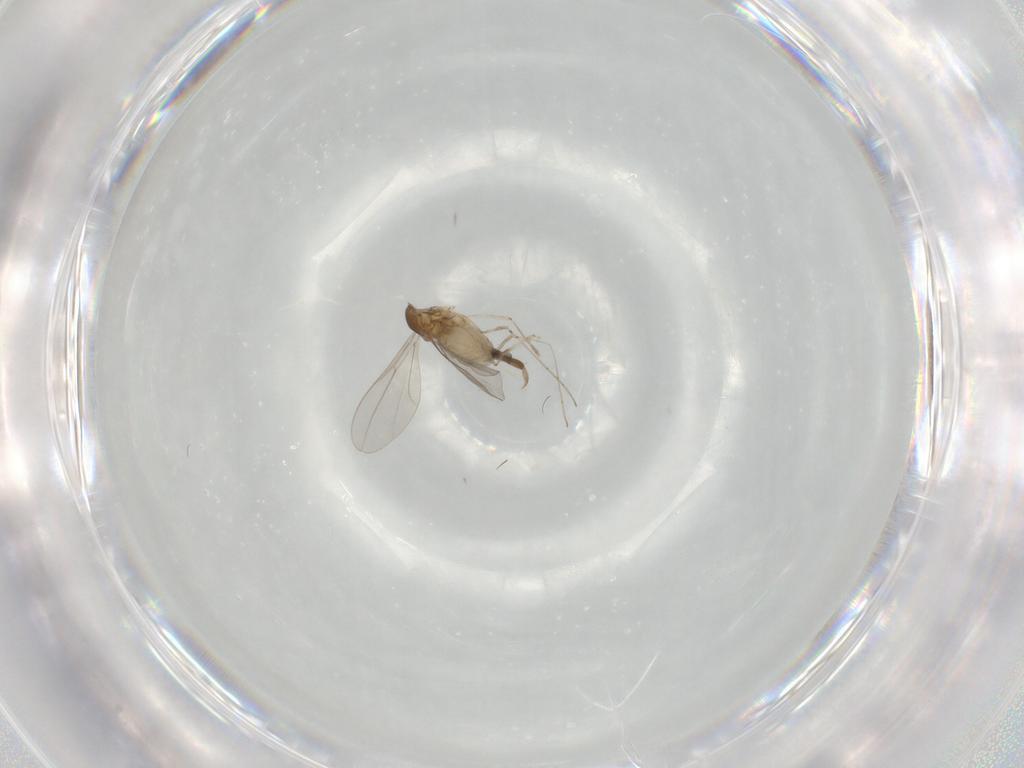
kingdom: Animalia
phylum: Arthropoda
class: Insecta
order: Diptera
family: Cecidomyiidae
